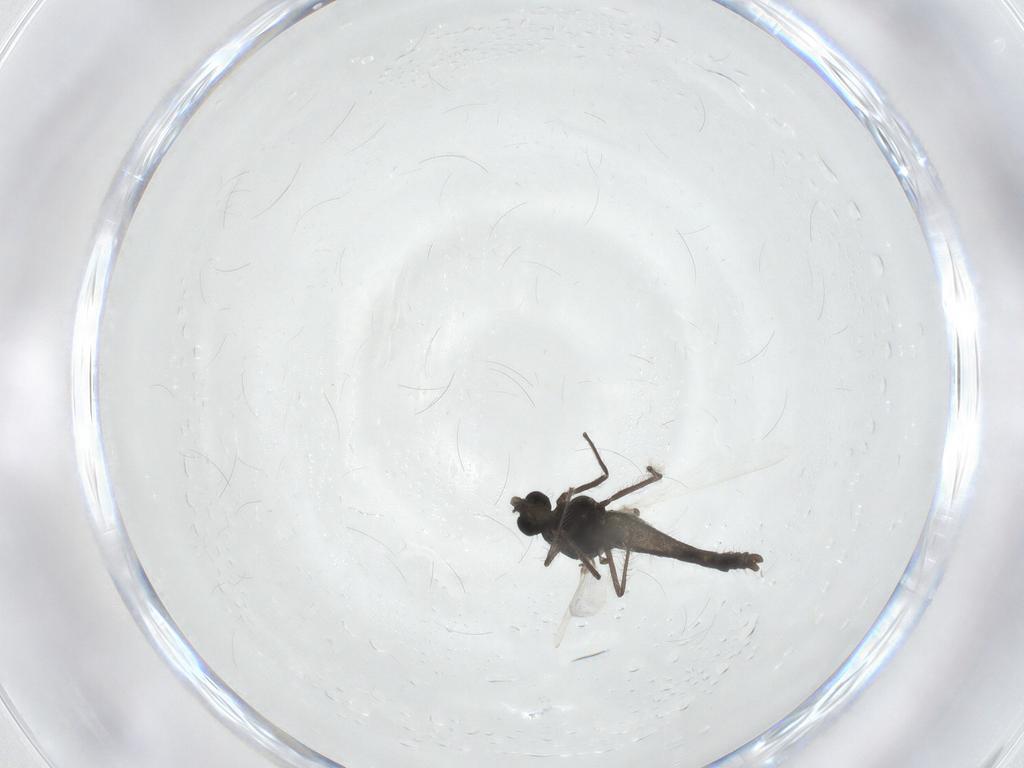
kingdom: Animalia
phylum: Arthropoda
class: Insecta
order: Diptera
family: Chironomidae
